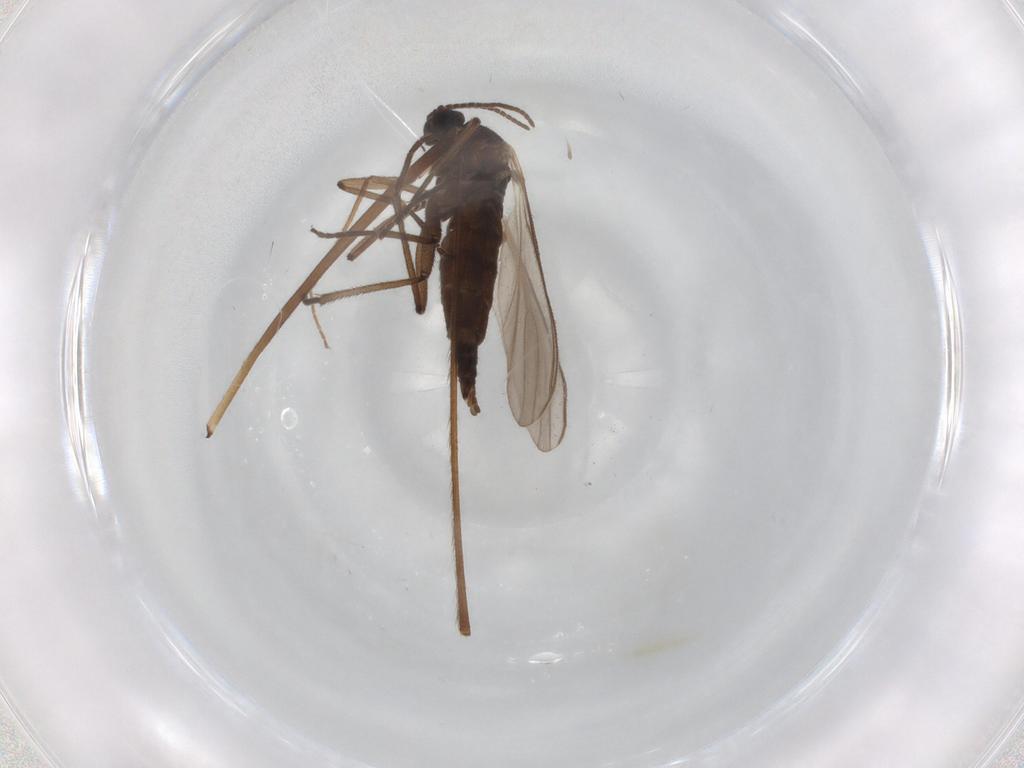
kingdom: Animalia
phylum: Arthropoda
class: Insecta
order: Diptera
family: Sciaridae
